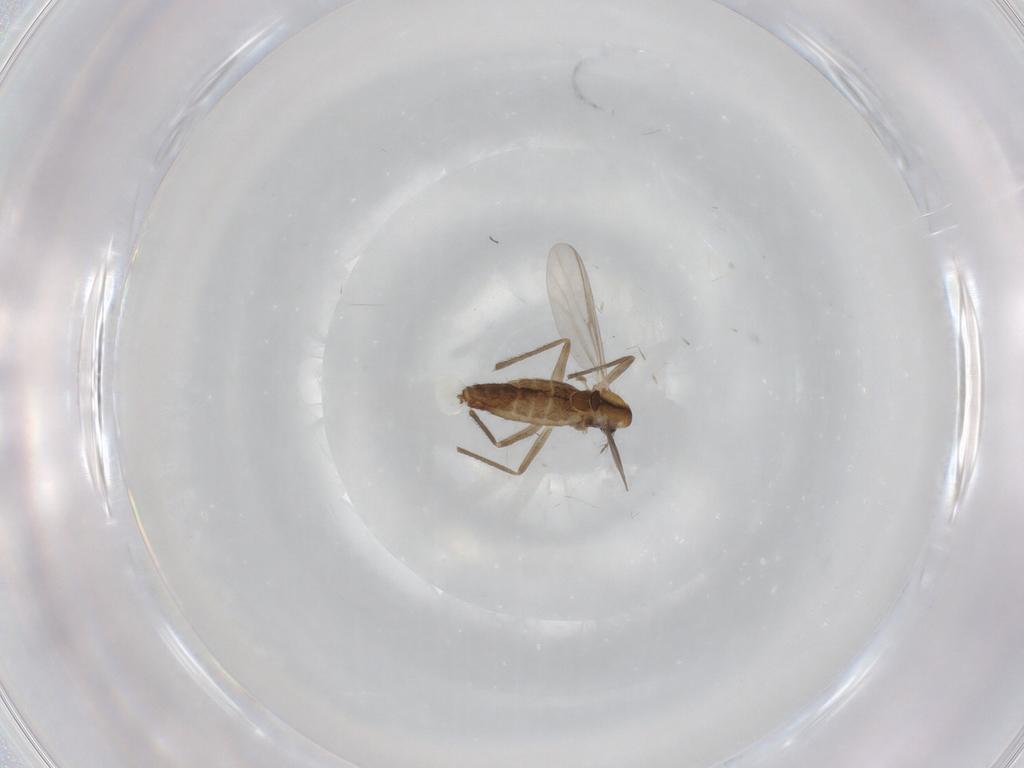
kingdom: Animalia
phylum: Arthropoda
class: Insecta
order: Diptera
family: Chironomidae
